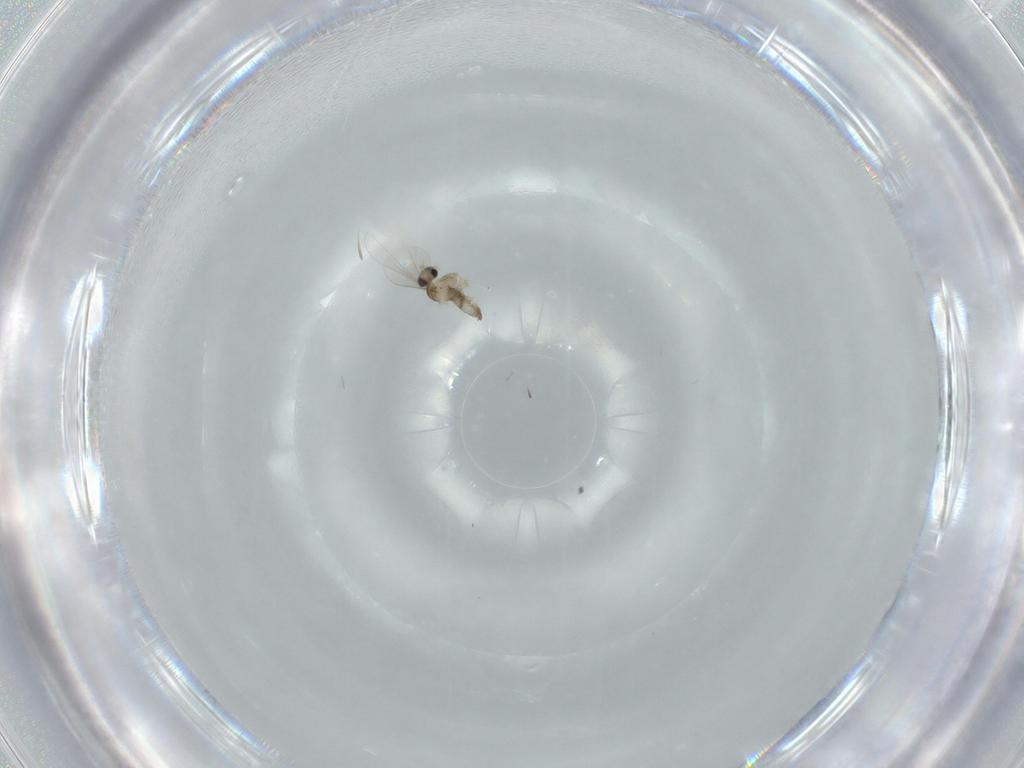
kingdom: Animalia
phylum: Arthropoda
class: Insecta
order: Diptera
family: Cecidomyiidae
